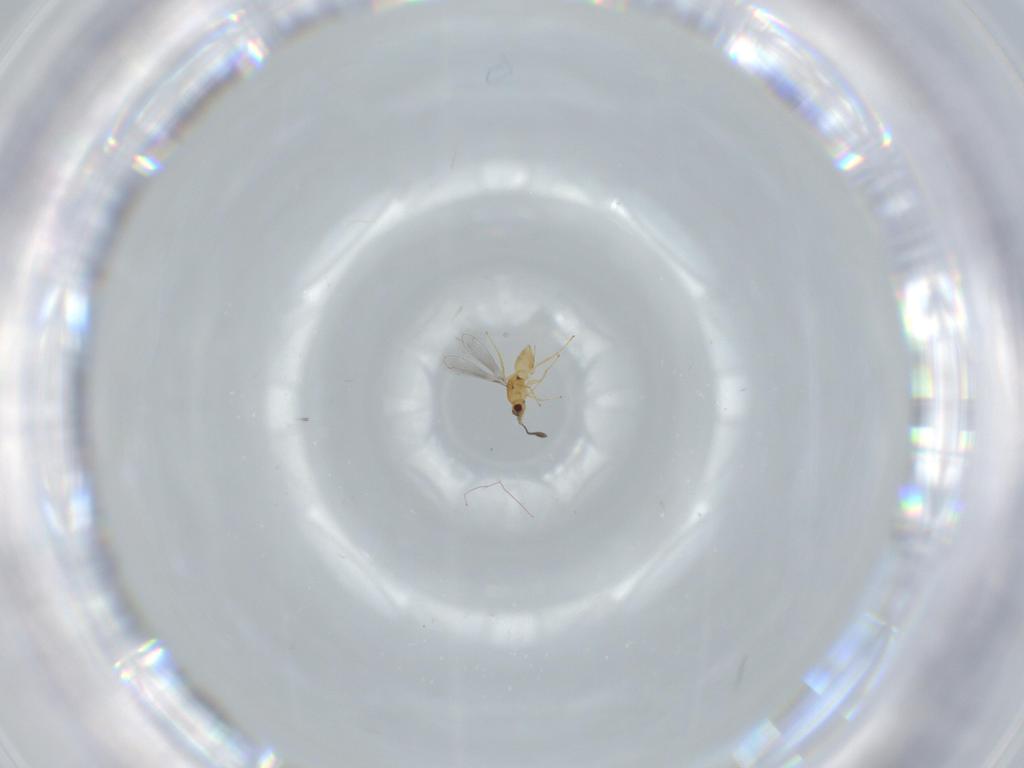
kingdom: Animalia
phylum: Arthropoda
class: Insecta
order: Hymenoptera
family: Mymaridae
